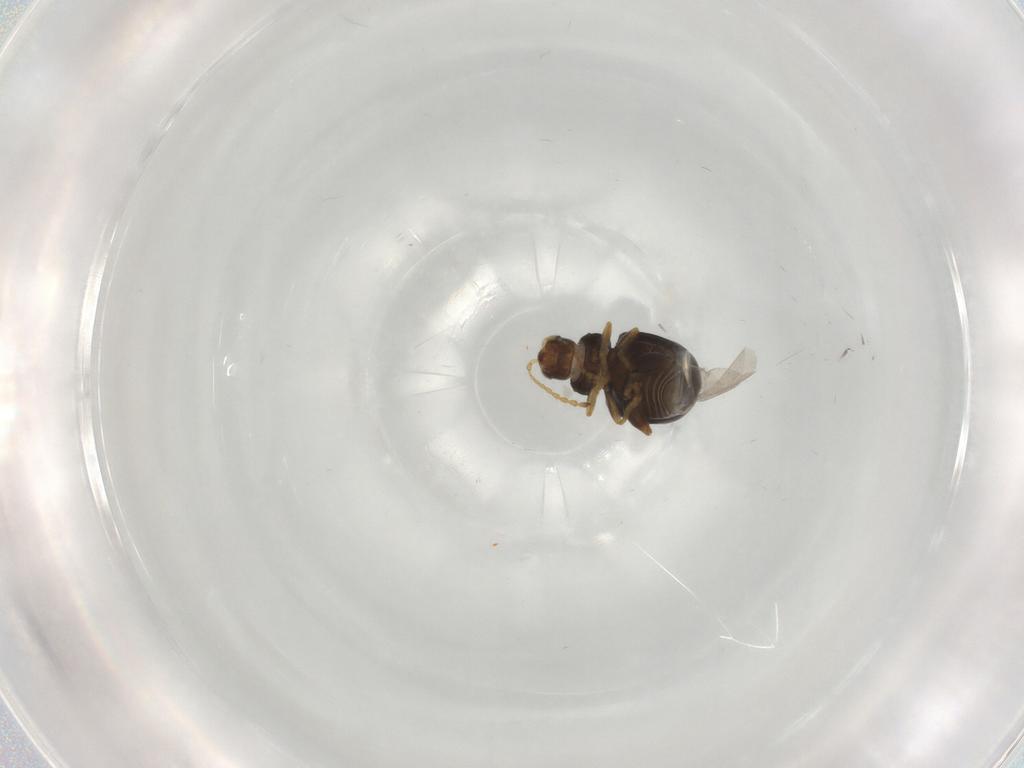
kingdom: Animalia
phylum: Arthropoda
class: Insecta
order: Coleoptera
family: Chrysomelidae
